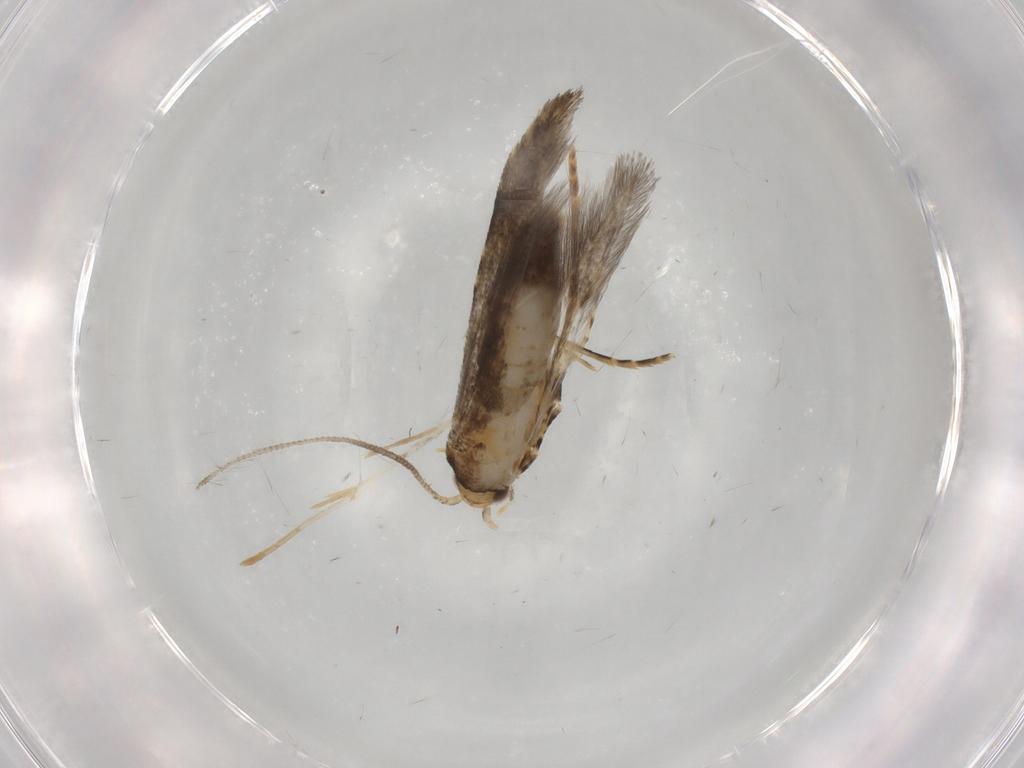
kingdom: Animalia
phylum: Arthropoda
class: Insecta
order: Lepidoptera
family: Tineidae
